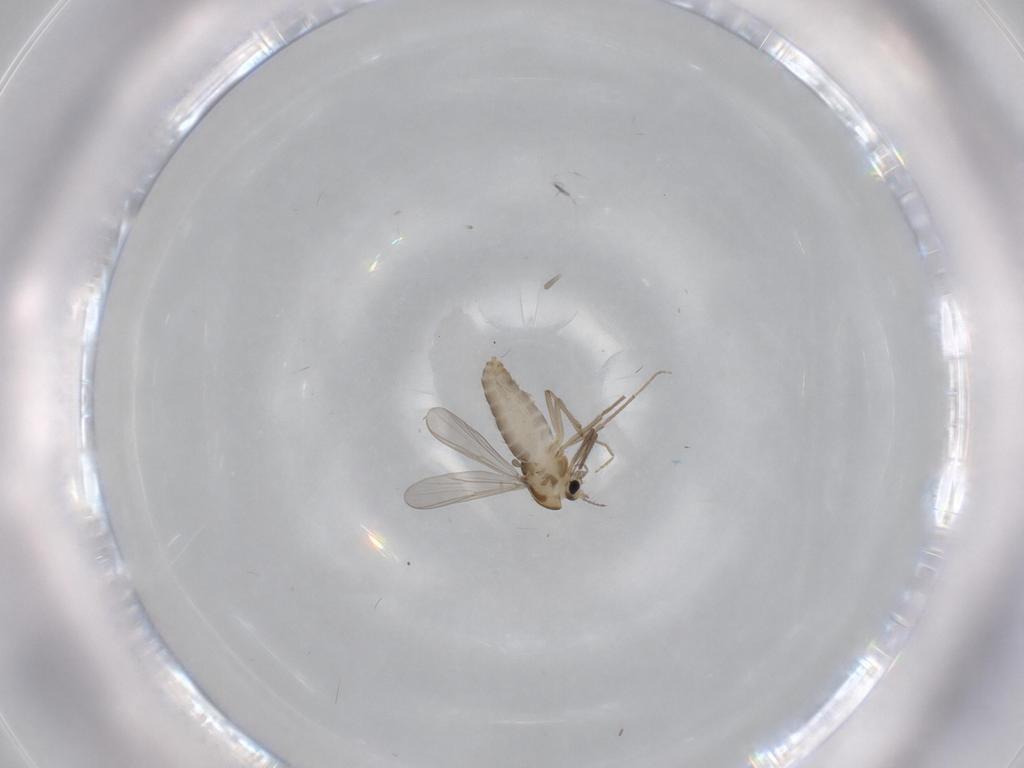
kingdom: Animalia
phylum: Arthropoda
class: Insecta
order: Diptera
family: Chironomidae
